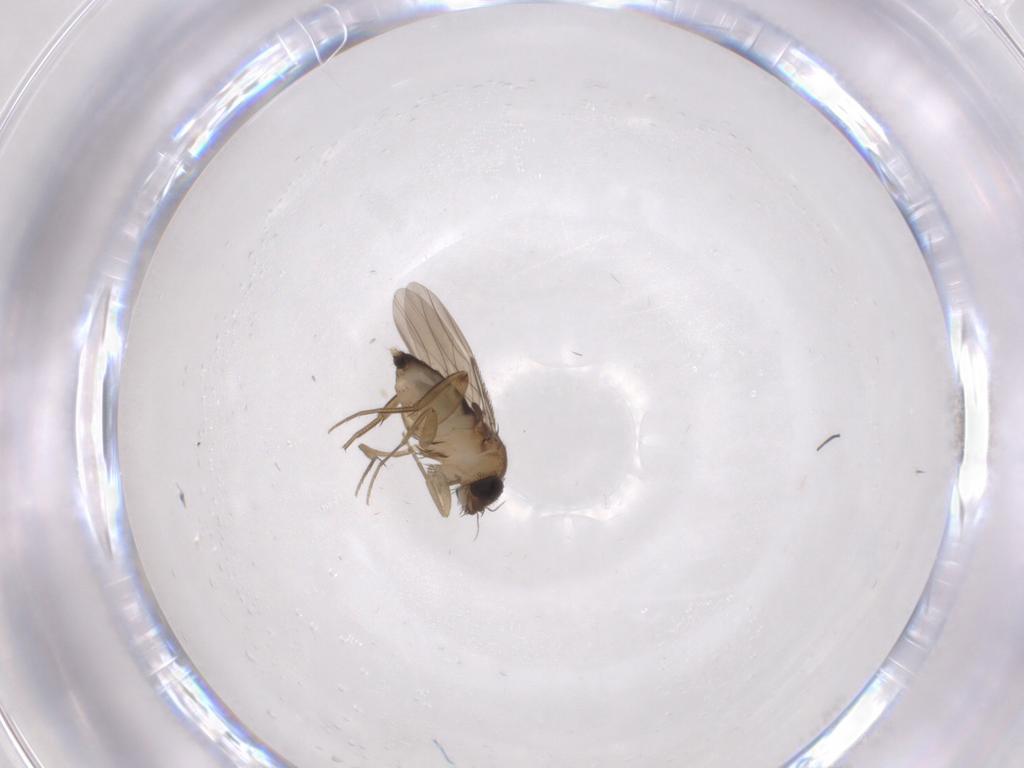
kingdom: Animalia
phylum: Arthropoda
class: Insecta
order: Diptera
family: Phoridae
